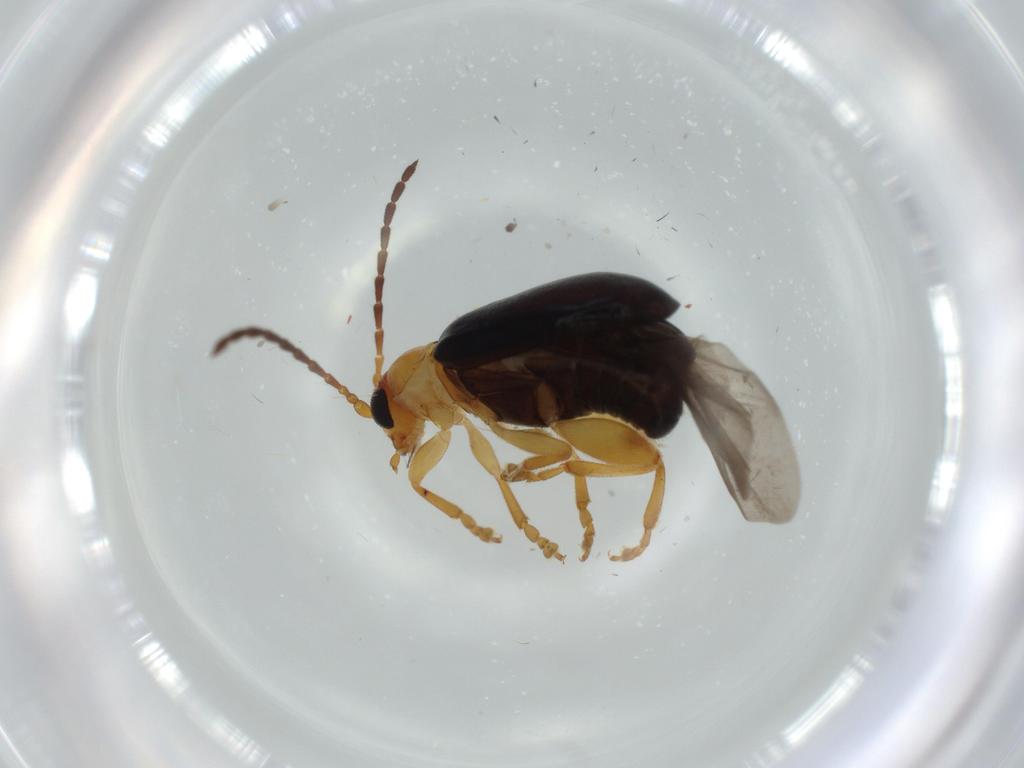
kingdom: Animalia
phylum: Arthropoda
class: Insecta
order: Coleoptera
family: Chrysomelidae
